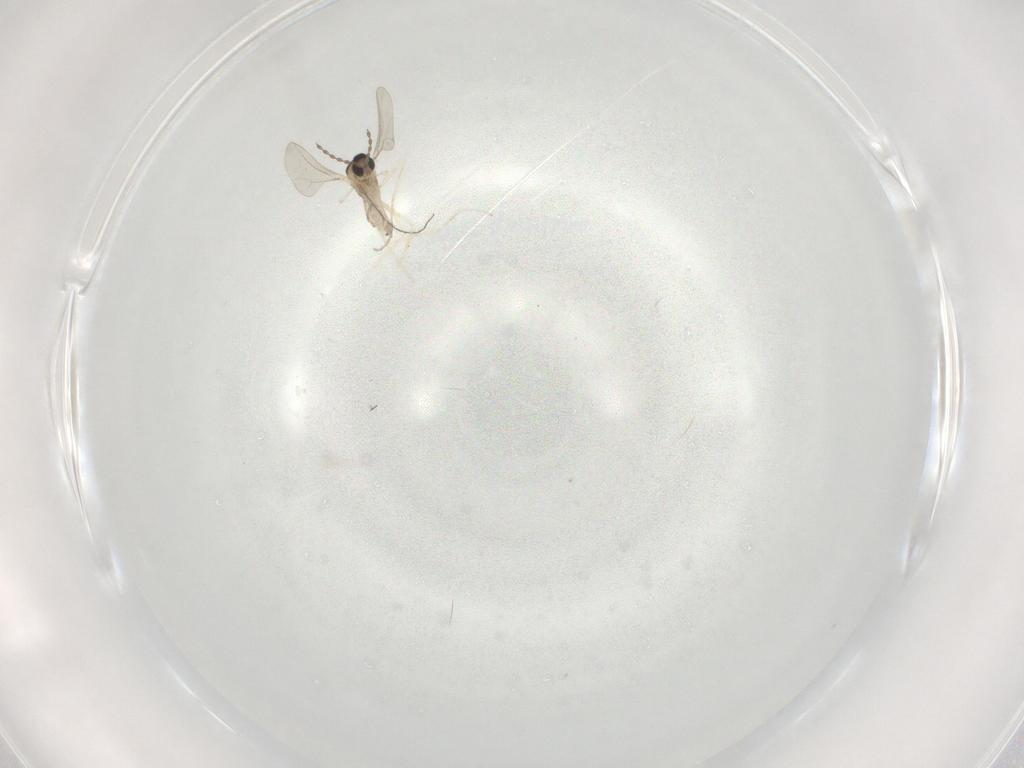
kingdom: Animalia
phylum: Arthropoda
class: Insecta
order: Diptera
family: Cecidomyiidae
